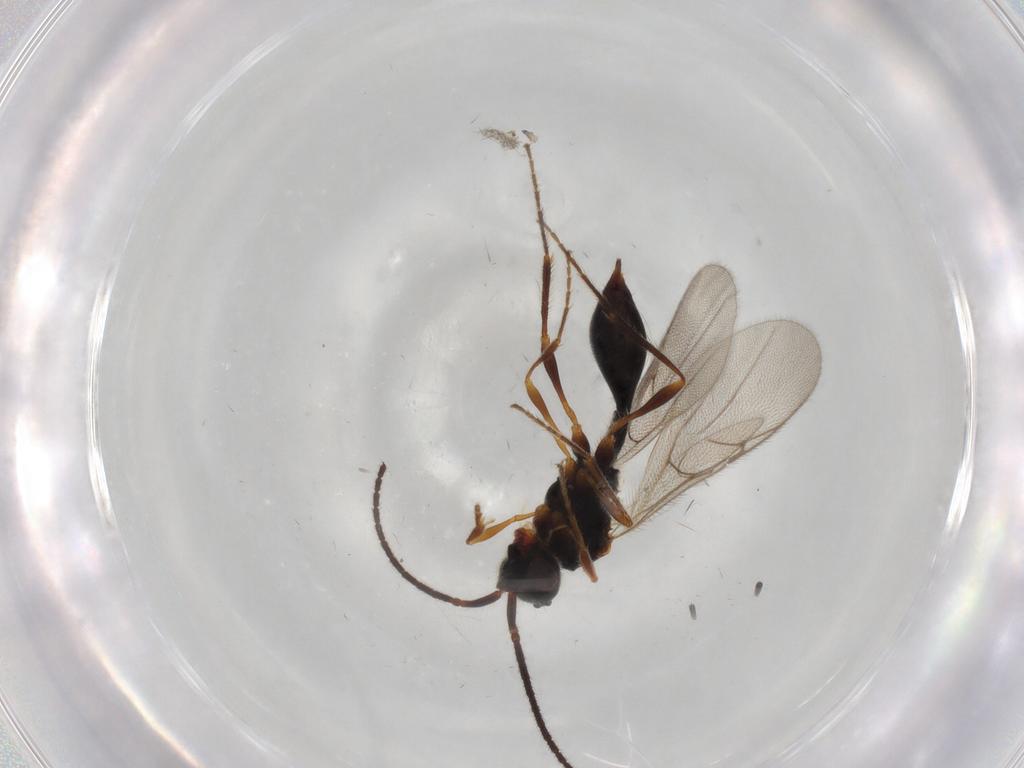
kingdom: Animalia
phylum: Arthropoda
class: Insecta
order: Hymenoptera
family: Diapriidae
